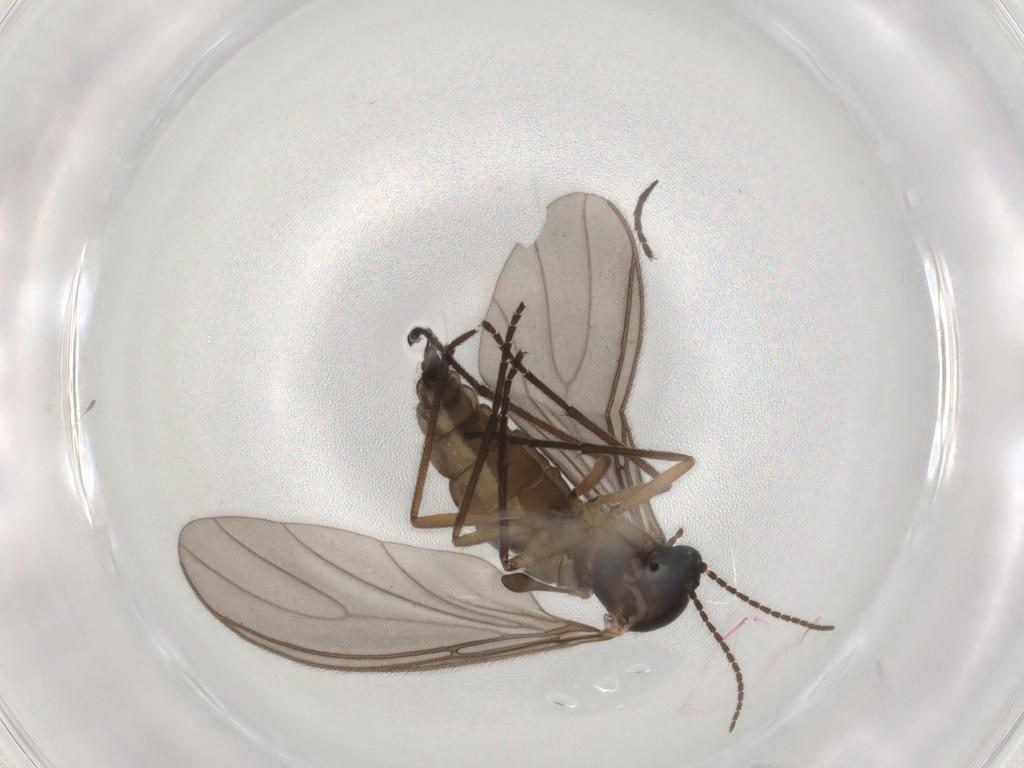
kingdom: Animalia
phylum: Arthropoda
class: Insecta
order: Diptera
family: Sciaridae
